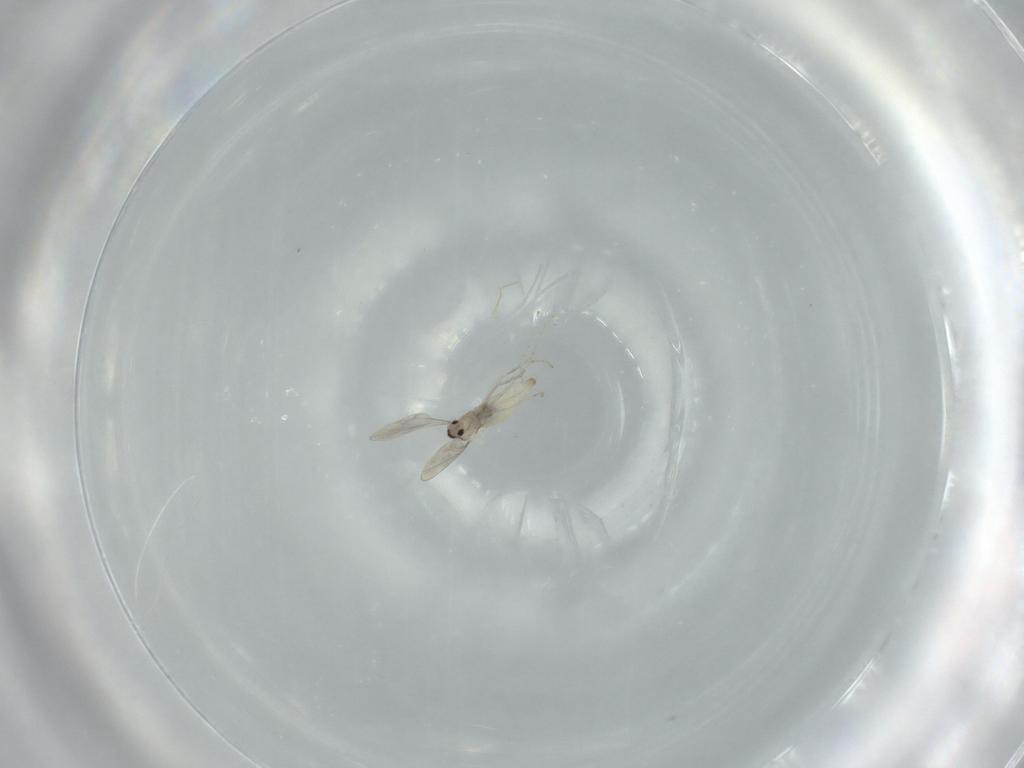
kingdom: Animalia
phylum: Arthropoda
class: Insecta
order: Diptera
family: Cecidomyiidae
